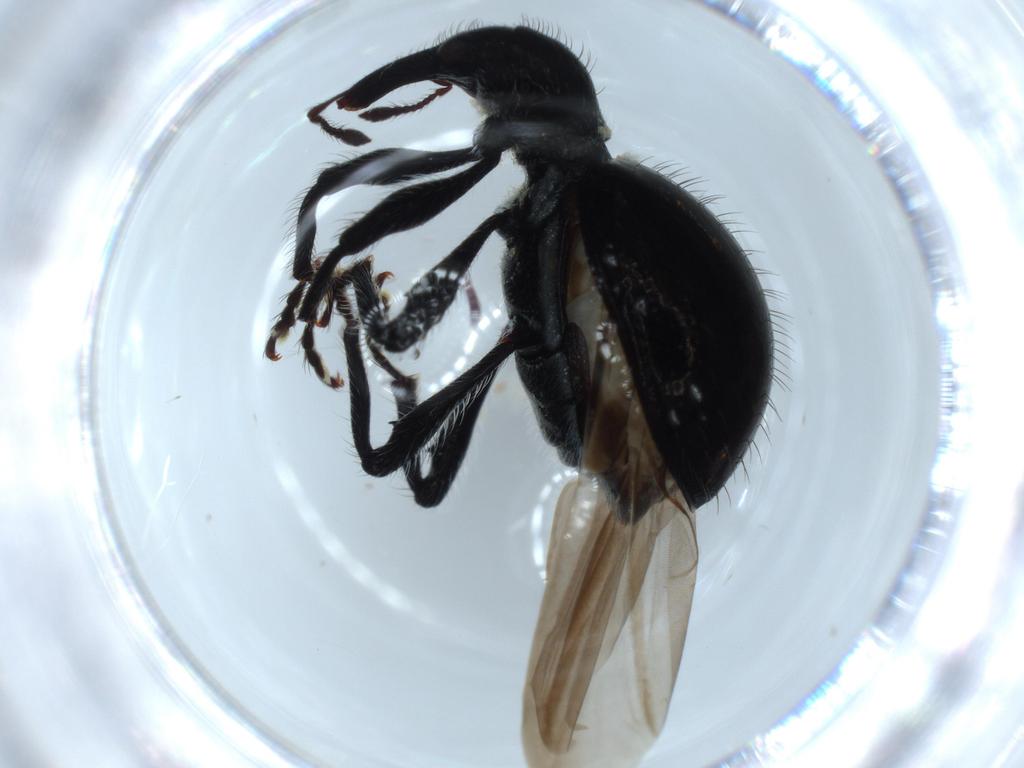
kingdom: Animalia
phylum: Arthropoda
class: Insecta
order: Coleoptera
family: Curculionidae
